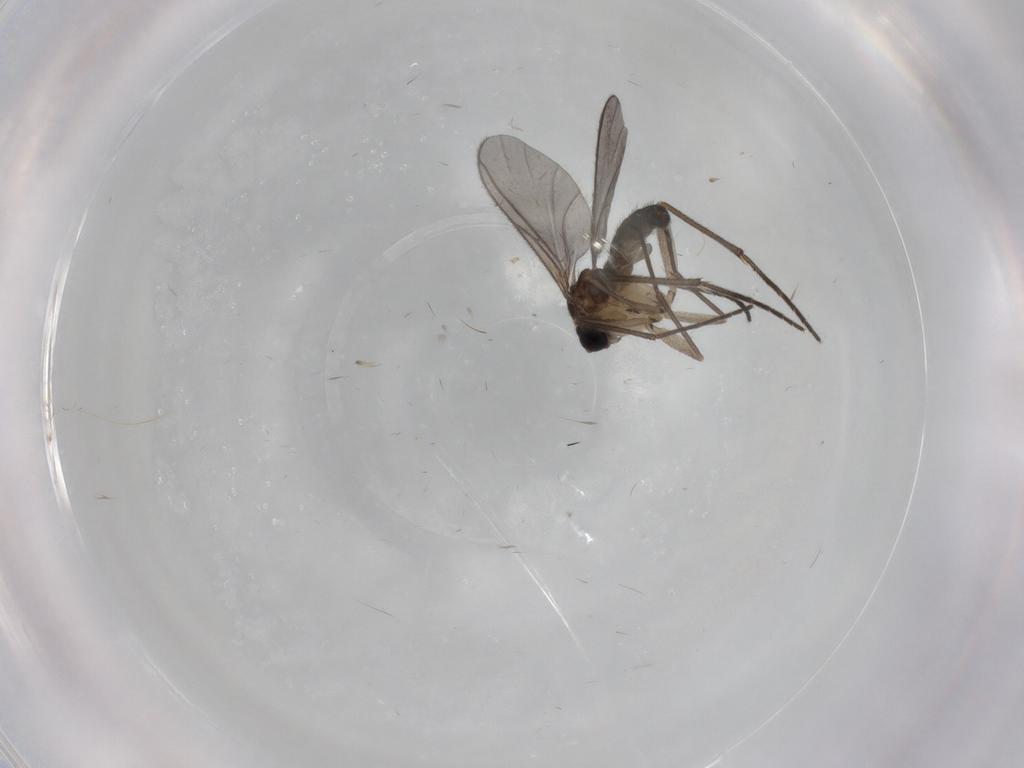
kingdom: Animalia
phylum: Arthropoda
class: Insecta
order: Diptera
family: Sciaridae
